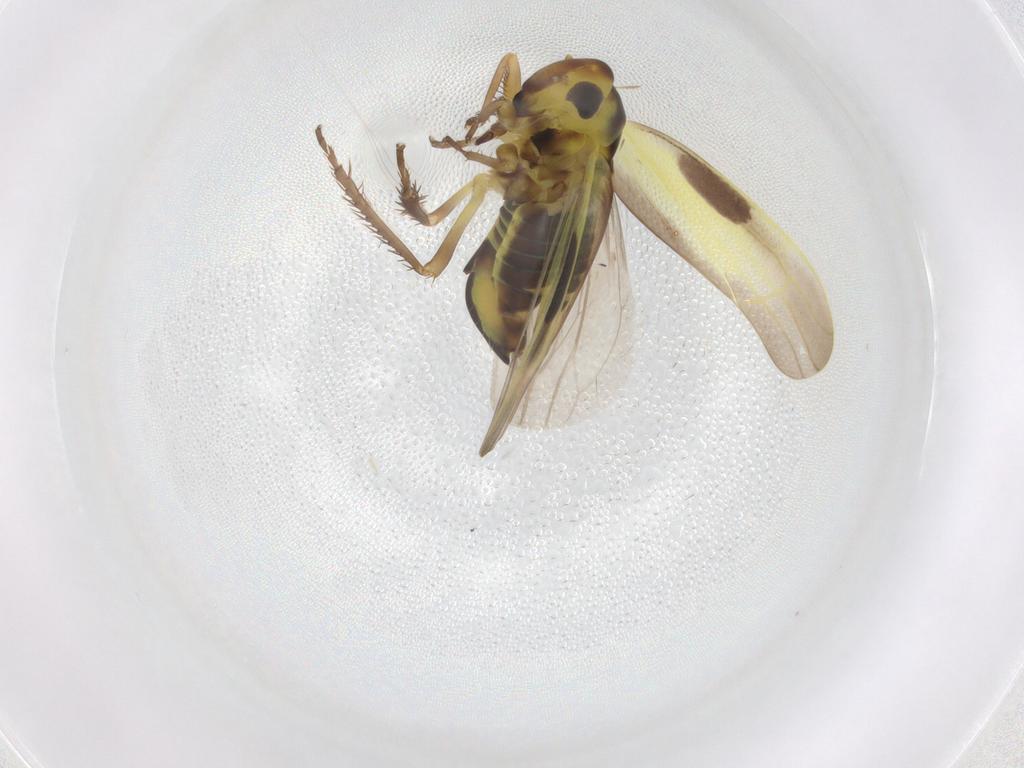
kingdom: Animalia
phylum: Arthropoda
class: Insecta
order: Hemiptera
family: Cicadellidae
